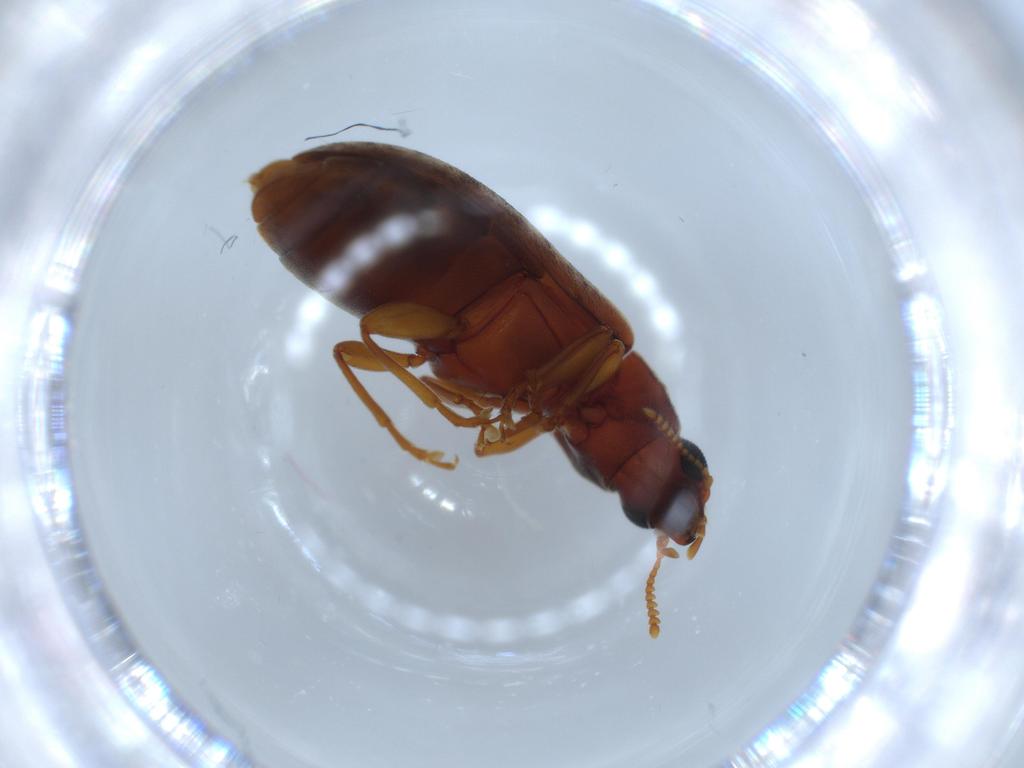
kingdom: Animalia
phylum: Arthropoda
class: Insecta
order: Coleoptera
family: Mycteridae
